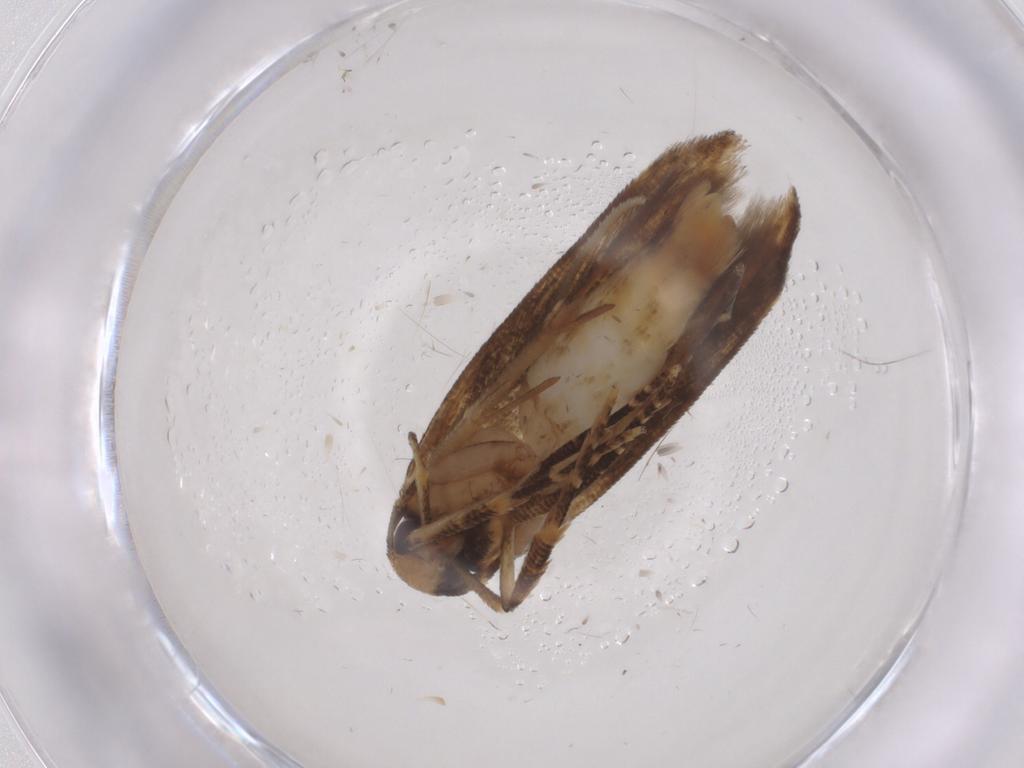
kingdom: Animalia
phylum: Arthropoda
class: Insecta
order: Lepidoptera
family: Cosmopterigidae
